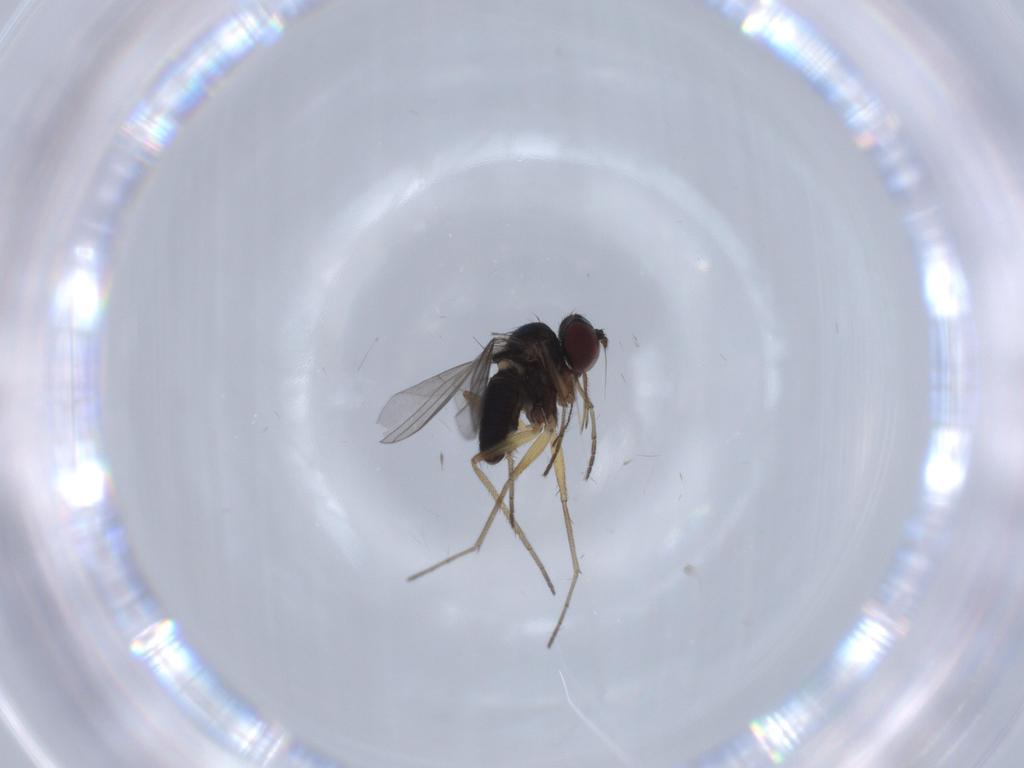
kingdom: Animalia
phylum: Arthropoda
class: Insecta
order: Diptera
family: Dolichopodidae
